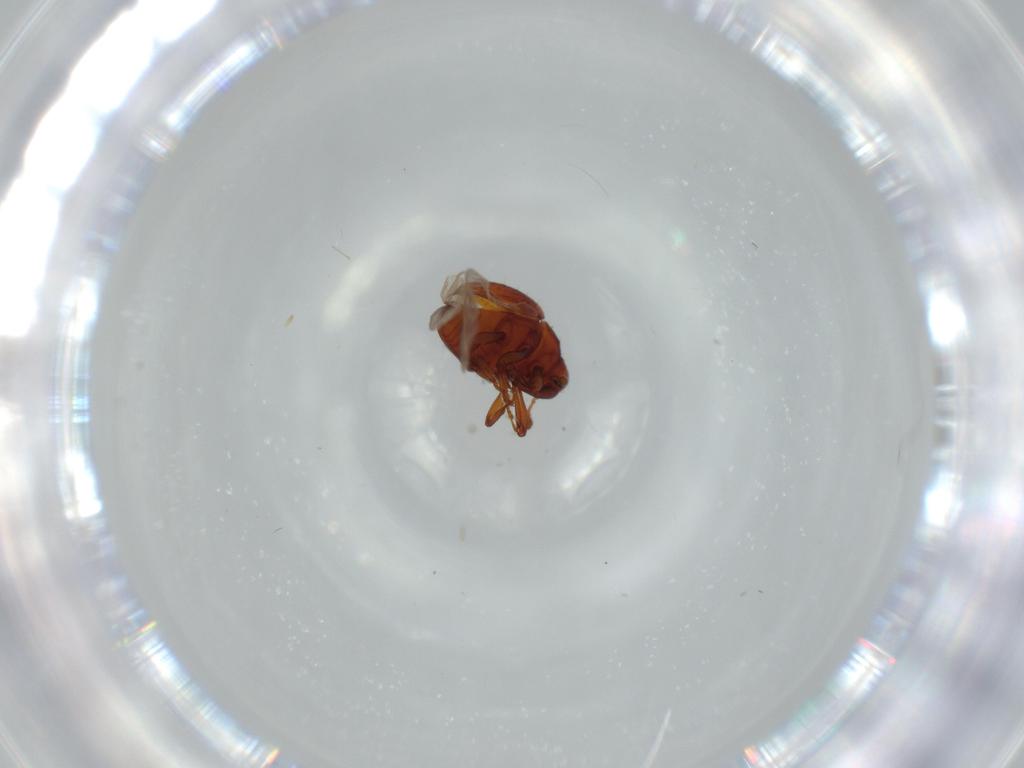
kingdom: Animalia
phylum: Arthropoda
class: Insecta
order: Coleoptera
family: Curculionidae
